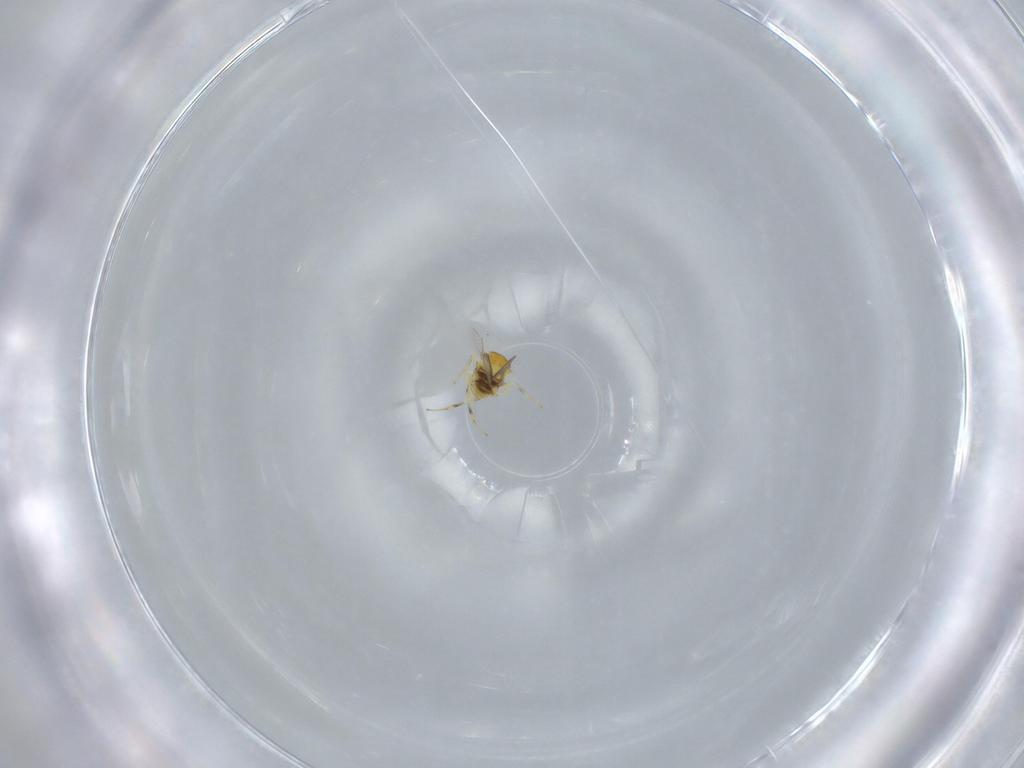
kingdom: Animalia
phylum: Arthropoda
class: Insecta
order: Hymenoptera
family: Aphelinidae
